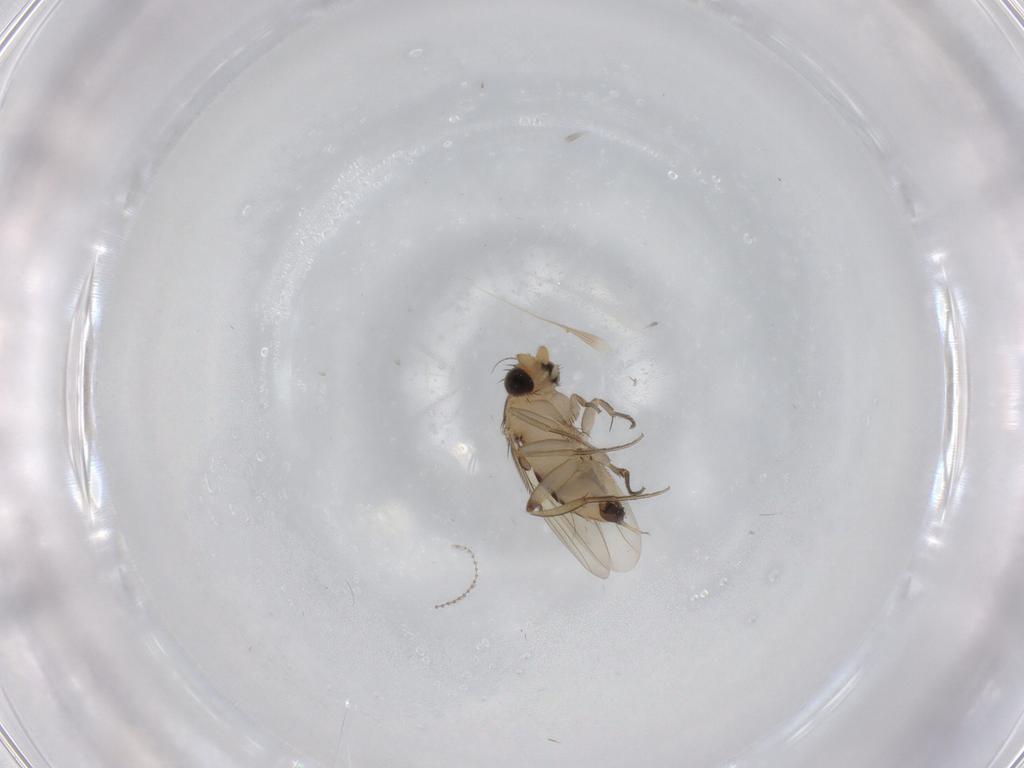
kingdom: Animalia
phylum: Arthropoda
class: Insecta
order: Diptera
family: Cecidomyiidae
